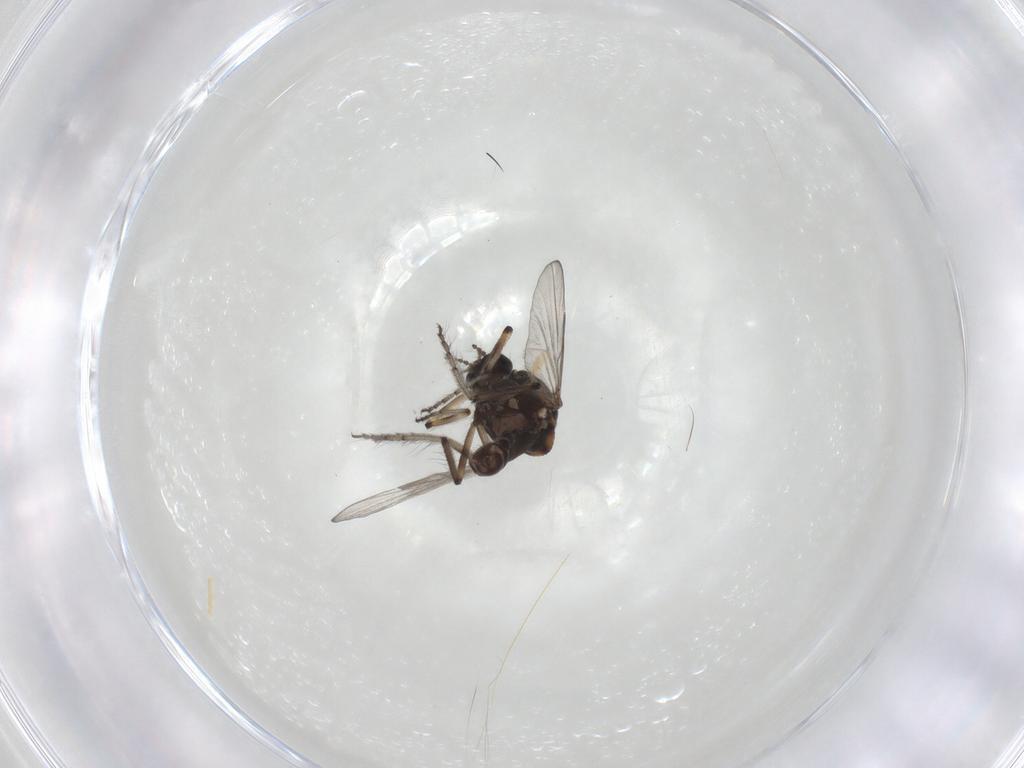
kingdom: Animalia
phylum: Arthropoda
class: Insecta
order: Diptera
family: Ceratopogonidae
